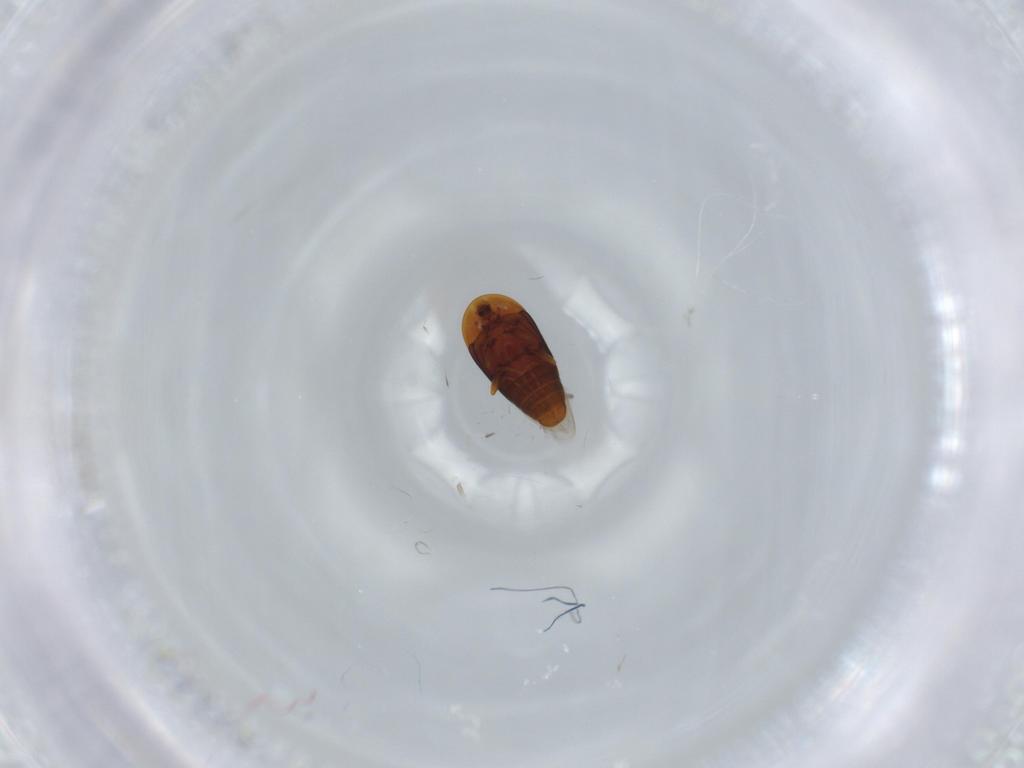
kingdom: Animalia
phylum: Arthropoda
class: Insecta
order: Coleoptera
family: Corylophidae
